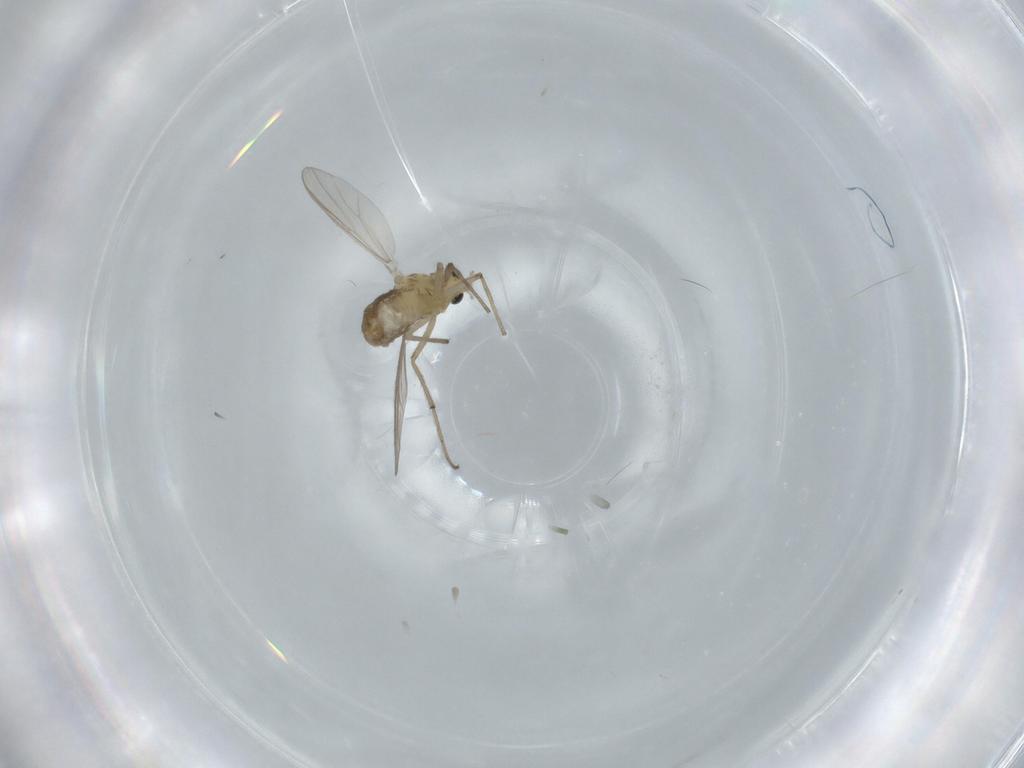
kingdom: Animalia
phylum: Arthropoda
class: Insecta
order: Diptera
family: Chironomidae
